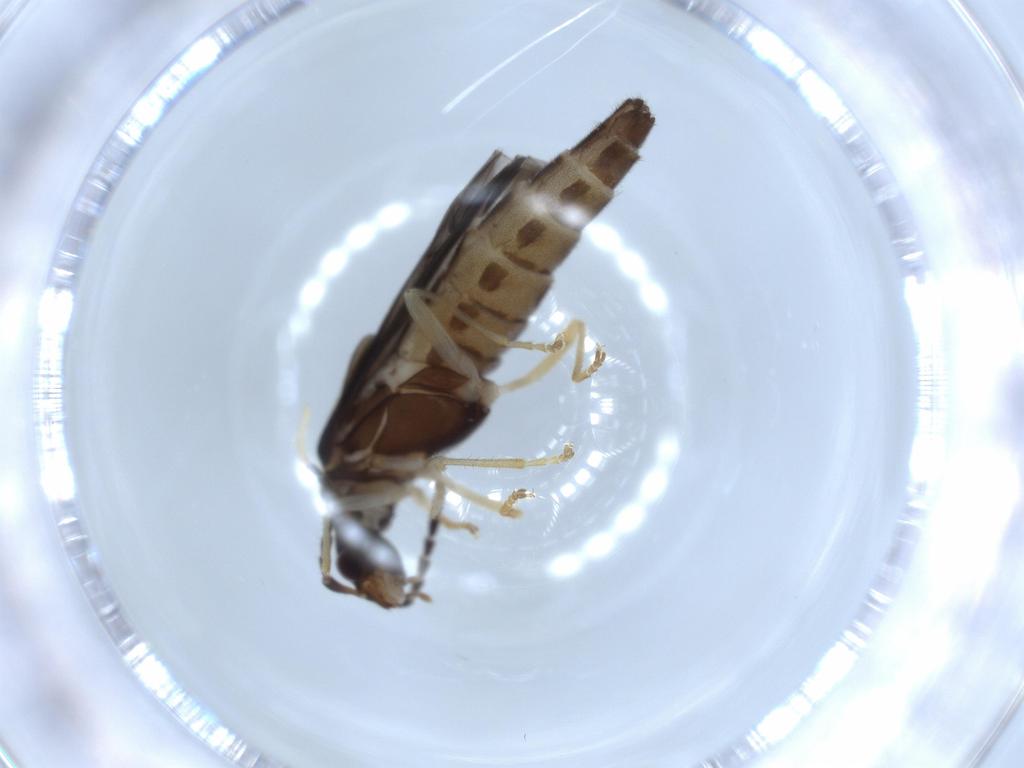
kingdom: Animalia
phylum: Arthropoda
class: Insecta
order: Coleoptera
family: Cantharidae
